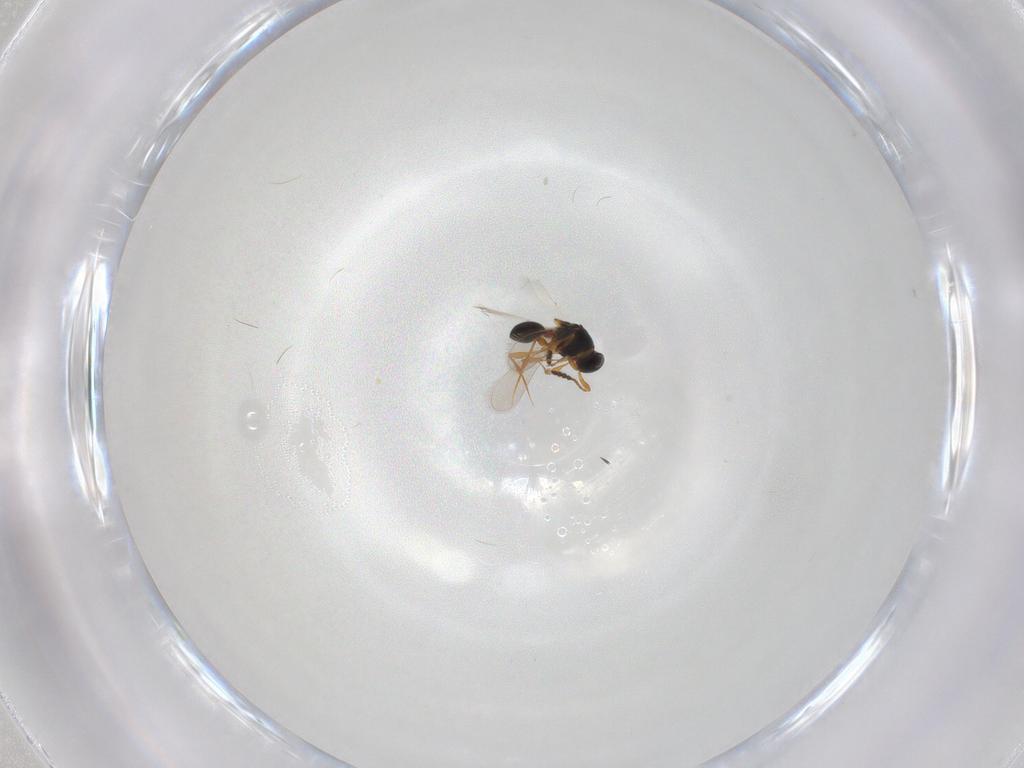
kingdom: Animalia
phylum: Arthropoda
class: Insecta
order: Hymenoptera
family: Platygastridae
